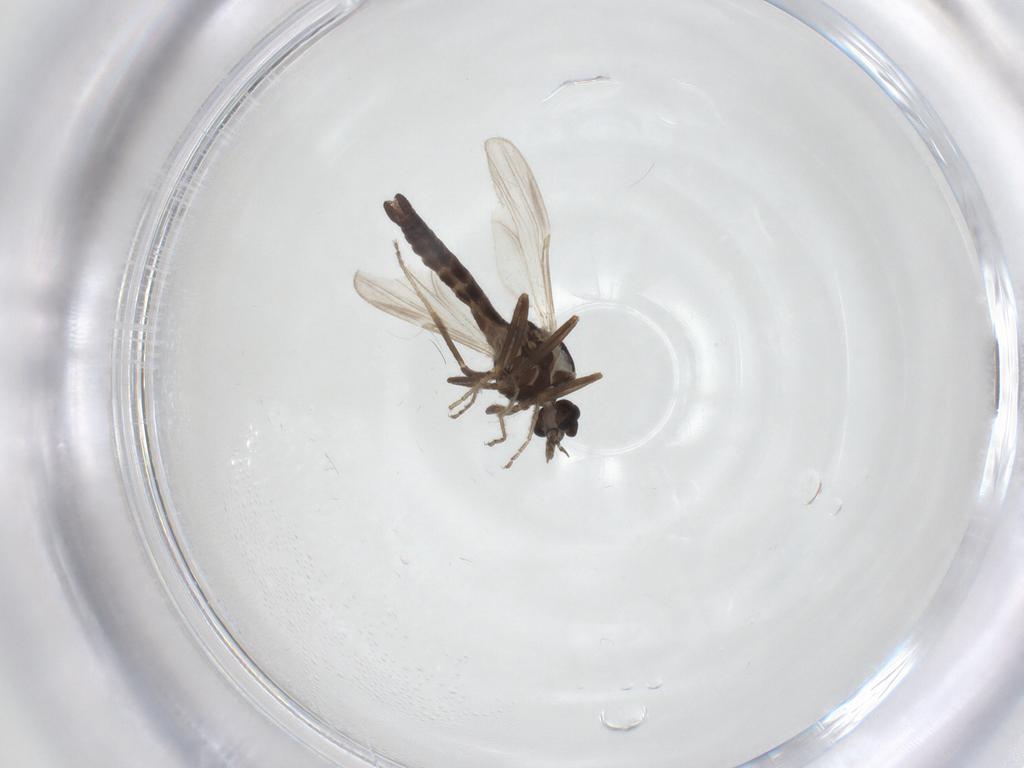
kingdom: Animalia
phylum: Arthropoda
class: Insecta
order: Diptera
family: Ceratopogonidae
